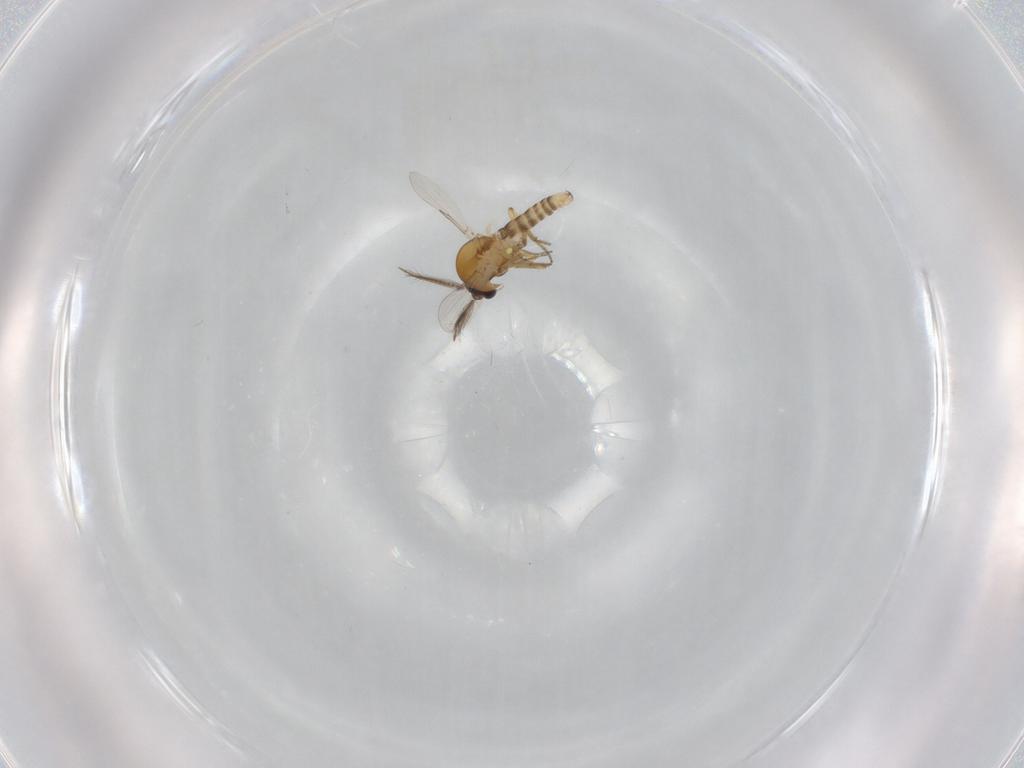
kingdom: Animalia
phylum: Arthropoda
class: Insecta
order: Diptera
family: Ceratopogonidae
